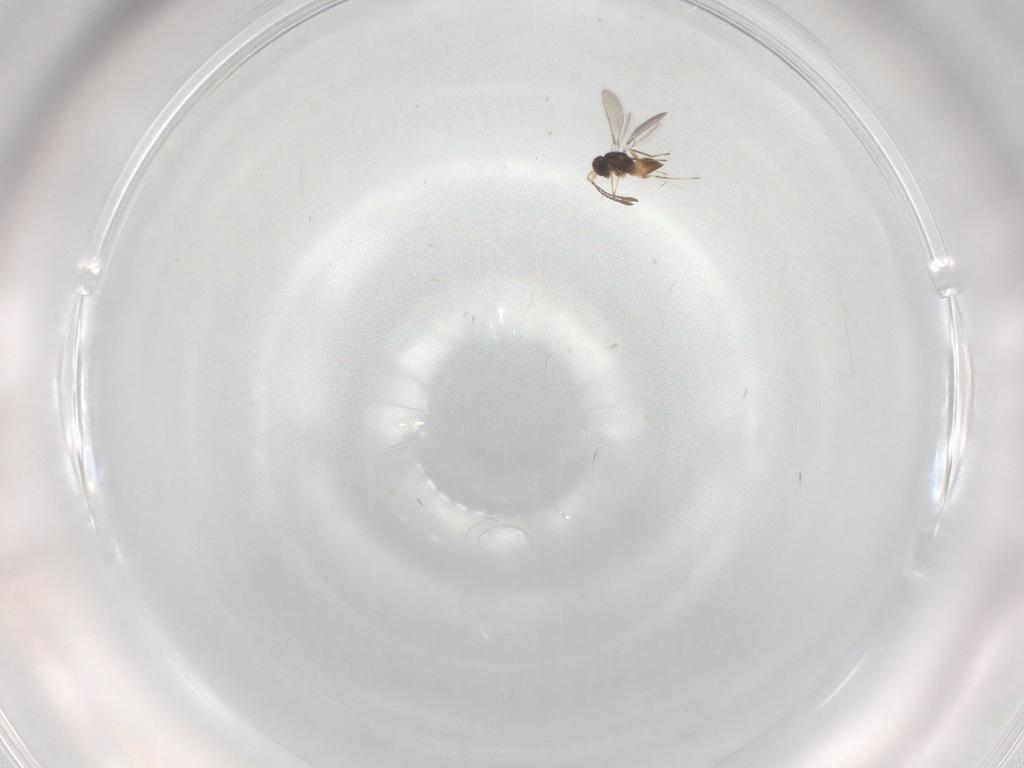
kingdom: Animalia
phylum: Arthropoda
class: Insecta
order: Hymenoptera
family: Mymaridae
